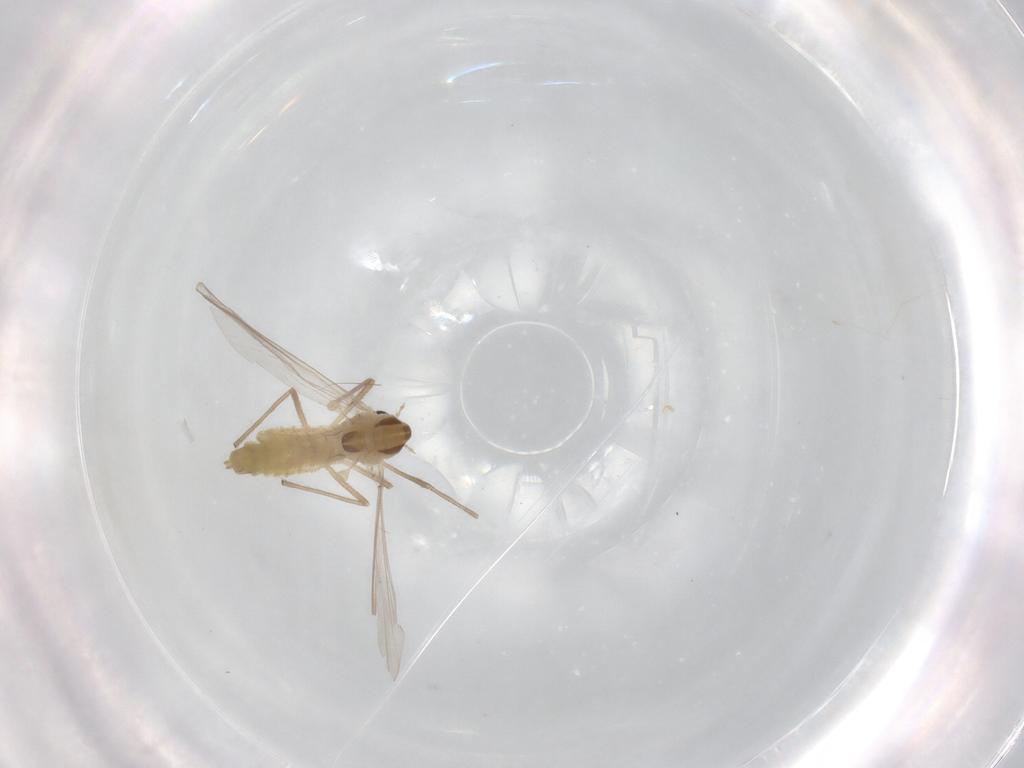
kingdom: Animalia
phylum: Arthropoda
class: Insecta
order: Diptera
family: Chironomidae
